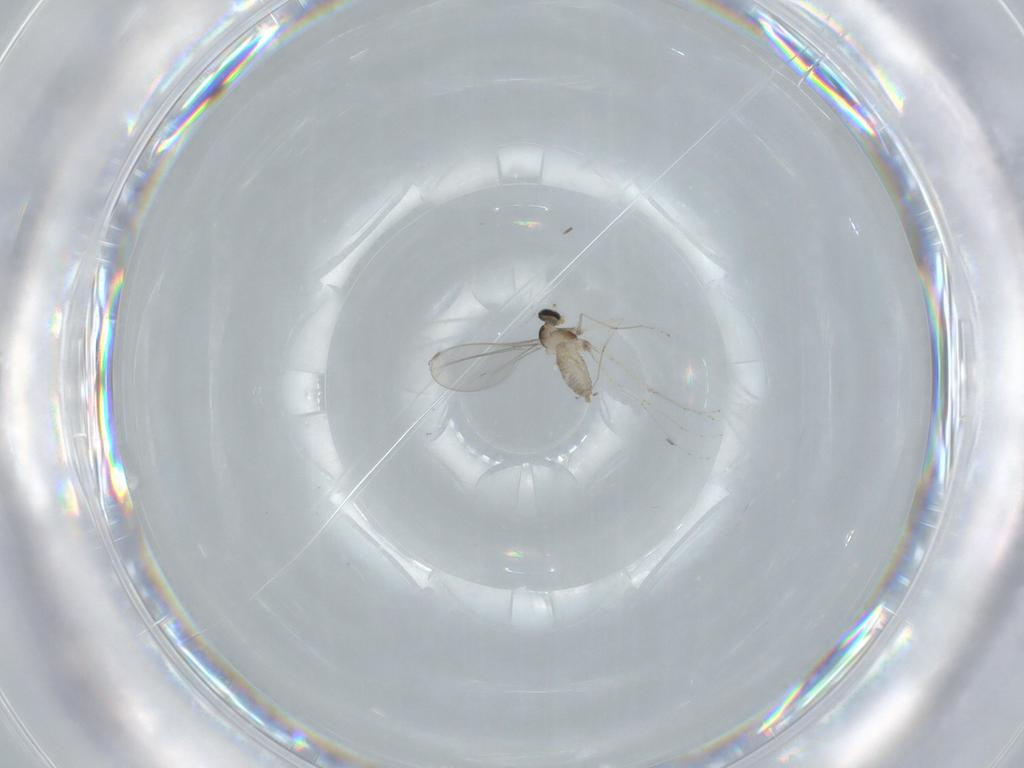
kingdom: Animalia
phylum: Arthropoda
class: Insecta
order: Diptera
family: Cecidomyiidae
